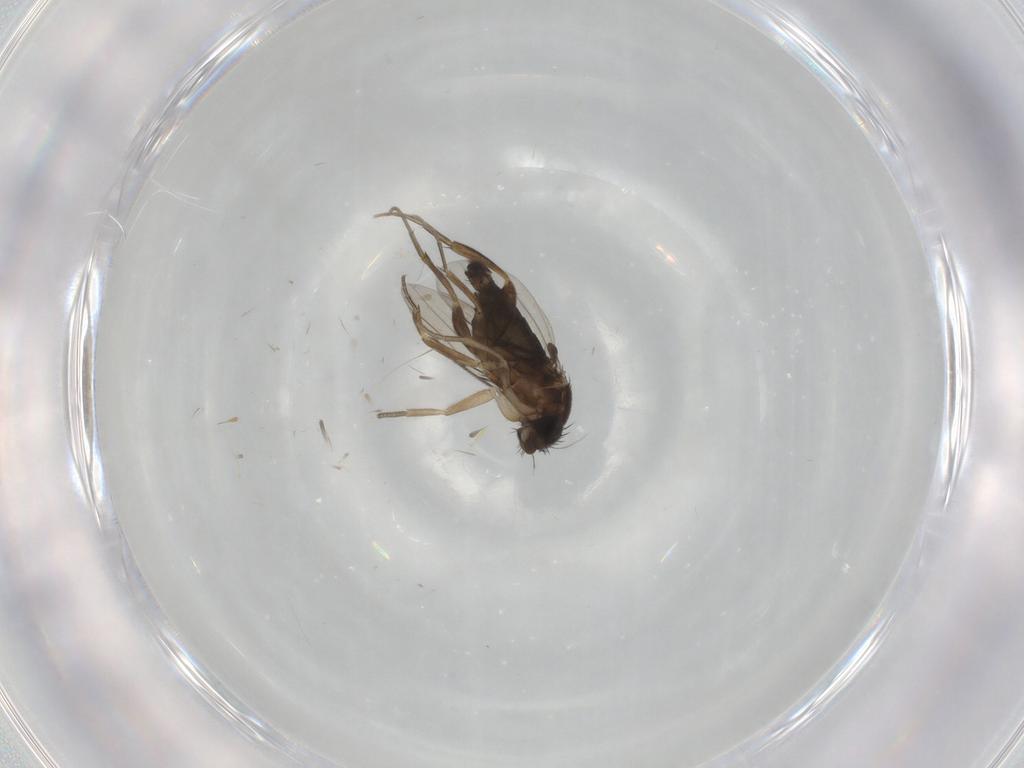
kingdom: Animalia
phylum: Arthropoda
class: Insecta
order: Diptera
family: Phoridae
